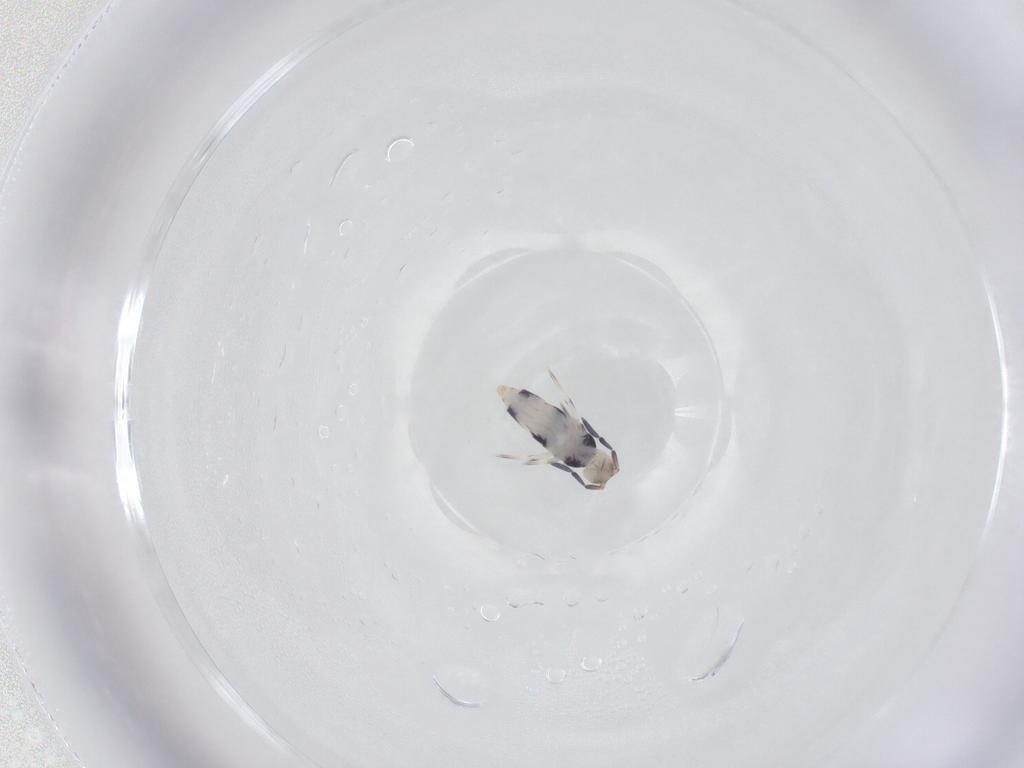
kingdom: Animalia
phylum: Arthropoda
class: Collembola
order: Entomobryomorpha
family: Entomobryidae
